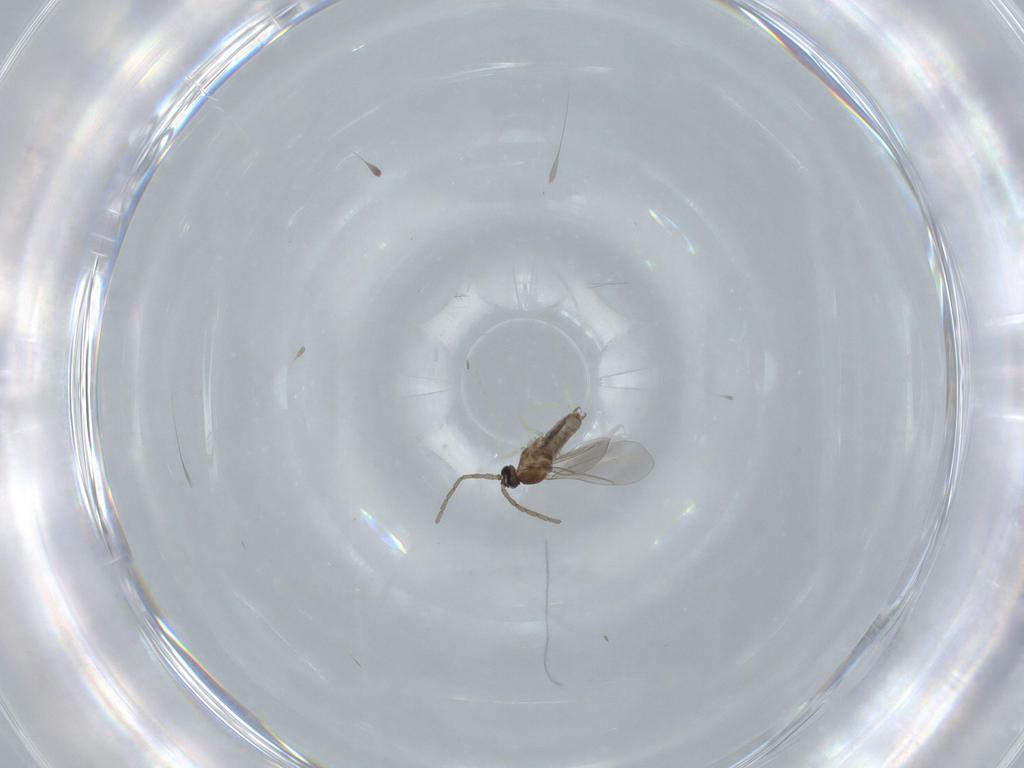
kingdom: Animalia
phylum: Arthropoda
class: Insecta
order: Diptera
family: Cecidomyiidae
